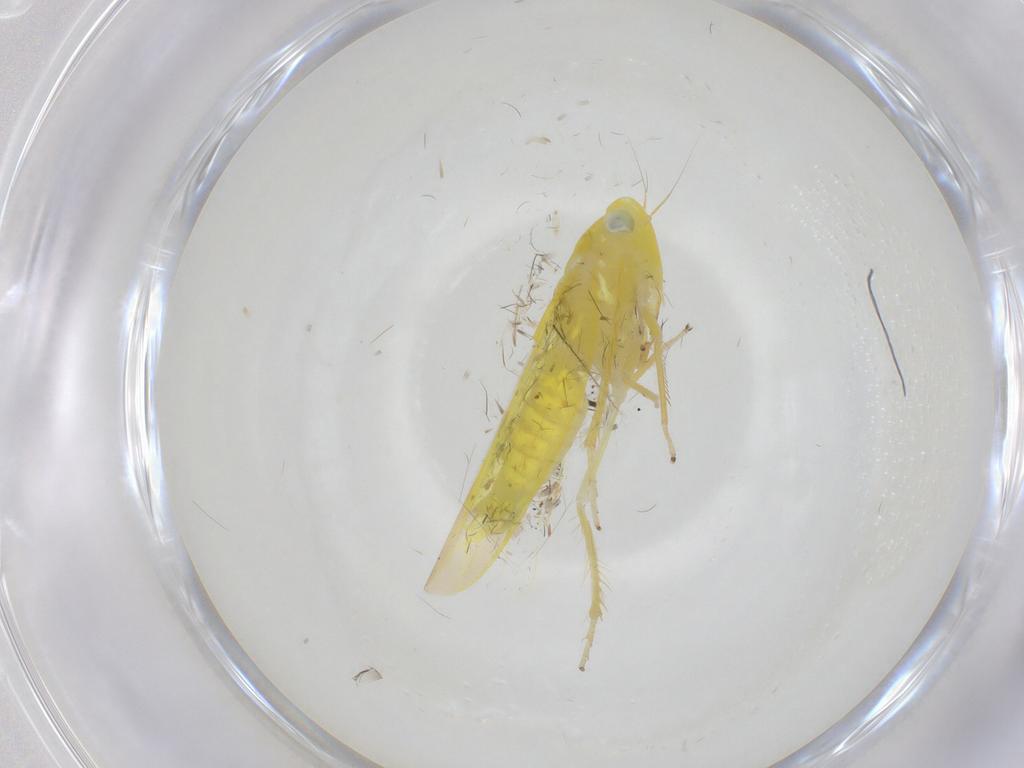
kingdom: Animalia
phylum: Arthropoda
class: Insecta
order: Hemiptera
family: Cicadellidae
